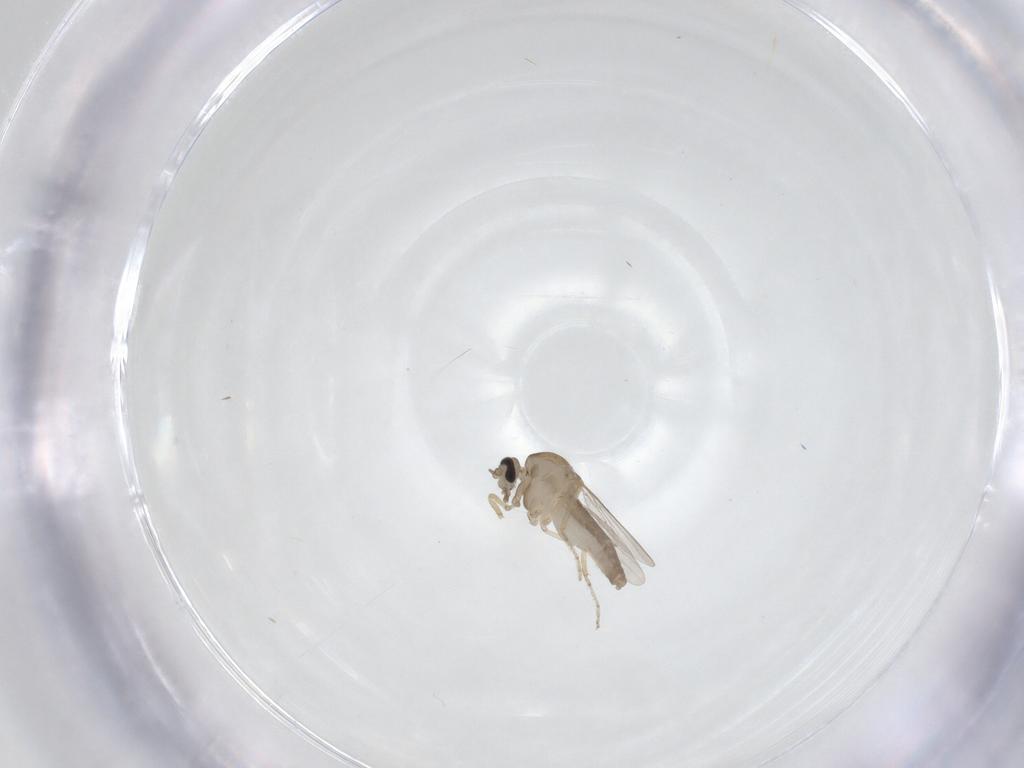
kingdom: Animalia
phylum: Arthropoda
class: Insecta
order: Diptera
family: Ceratopogonidae
